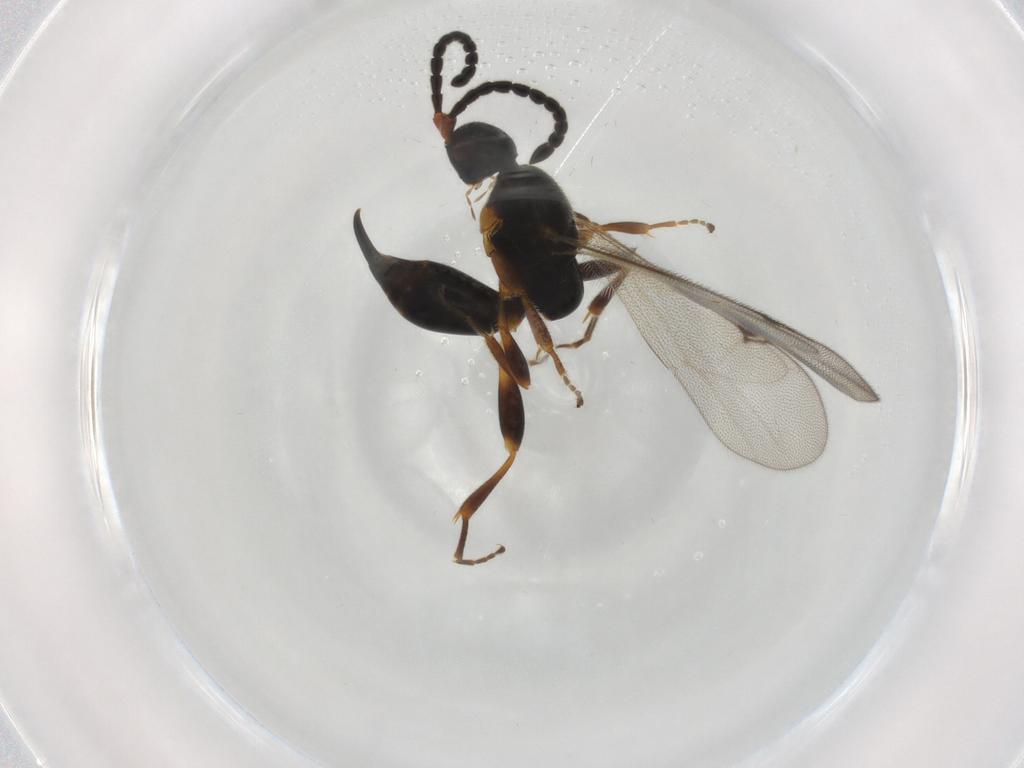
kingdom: Animalia
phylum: Arthropoda
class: Insecta
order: Hymenoptera
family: Proctotrupidae
